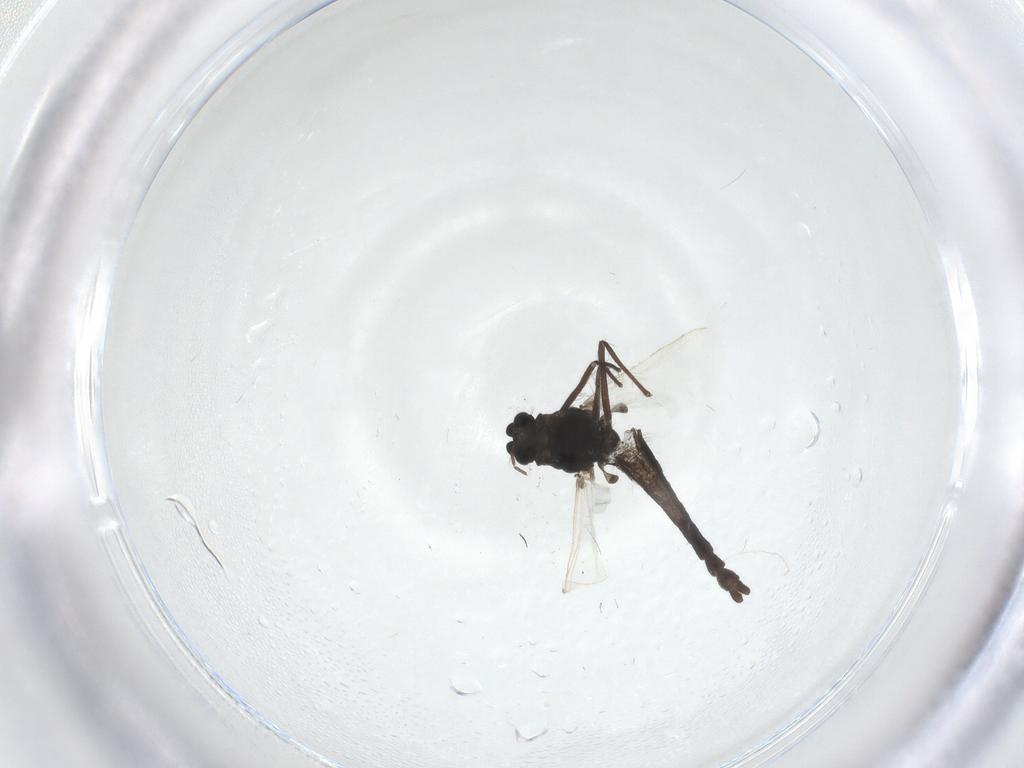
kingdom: Animalia
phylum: Arthropoda
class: Insecta
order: Diptera
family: Chironomidae
